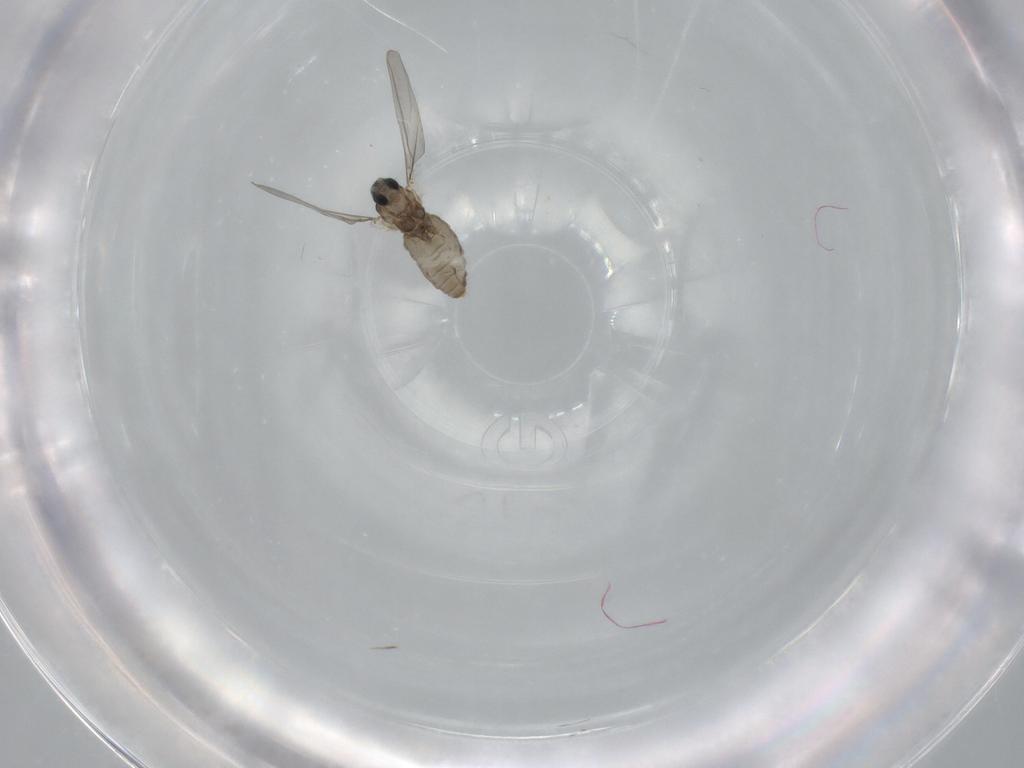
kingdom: Animalia
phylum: Arthropoda
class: Insecta
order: Diptera
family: Cecidomyiidae
